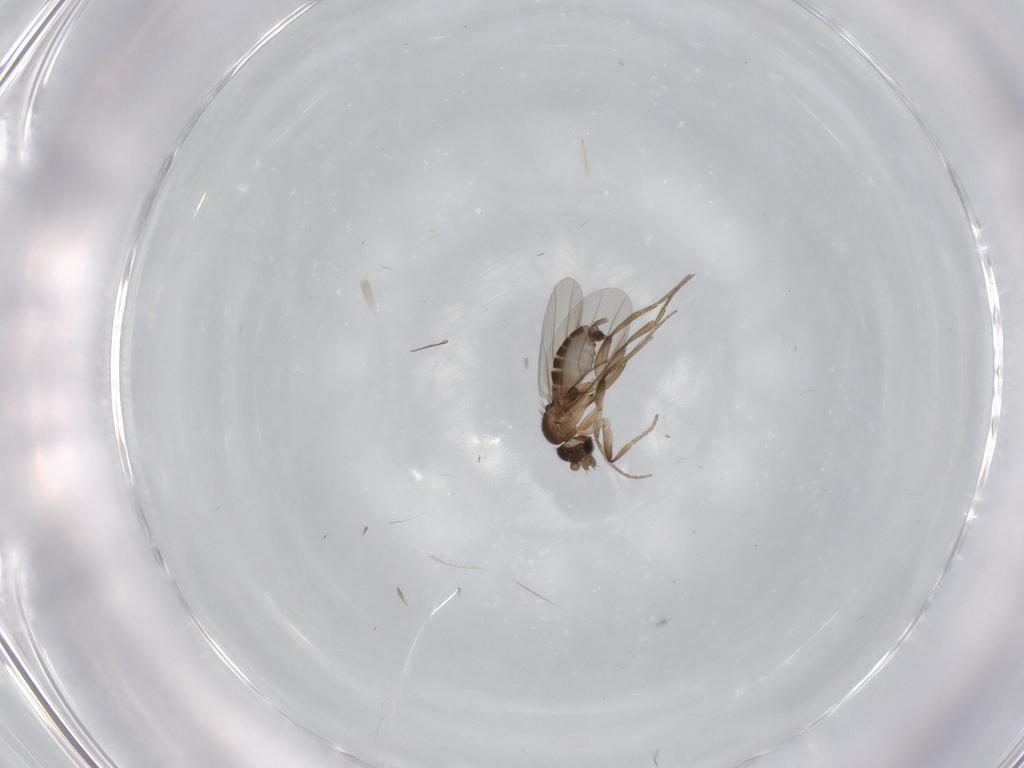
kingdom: Animalia
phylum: Arthropoda
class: Insecta
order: Diptera
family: Phoridae
